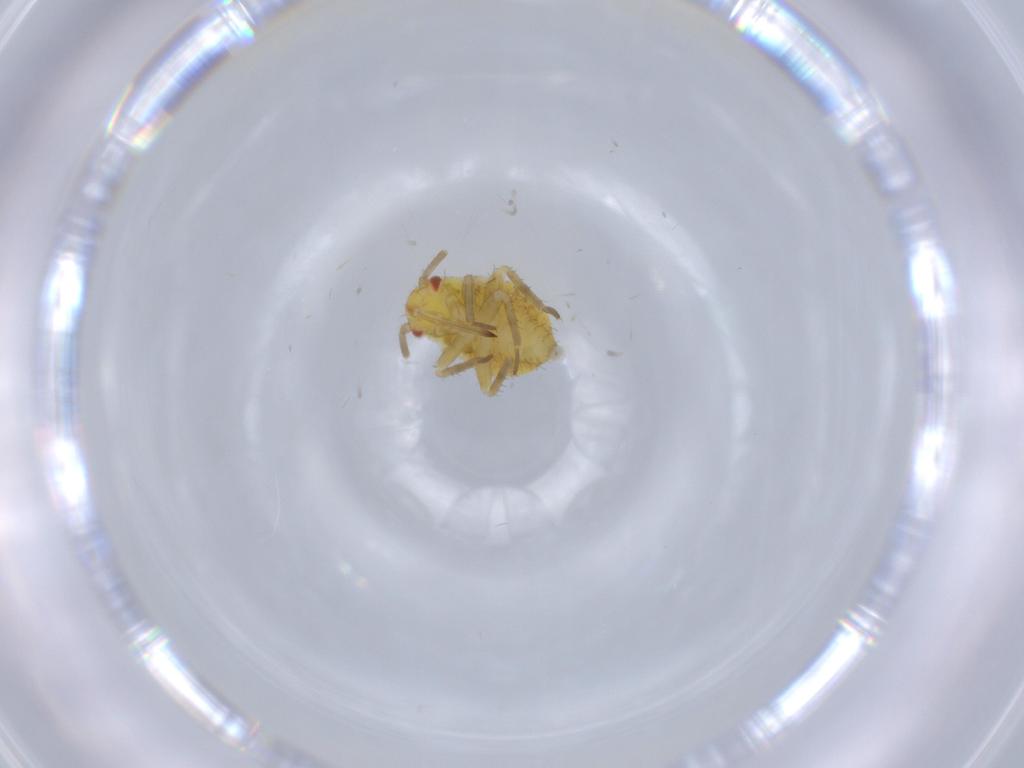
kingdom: Animalia
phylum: Arthropoda
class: Insecta
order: Hemiptera
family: Miridae
